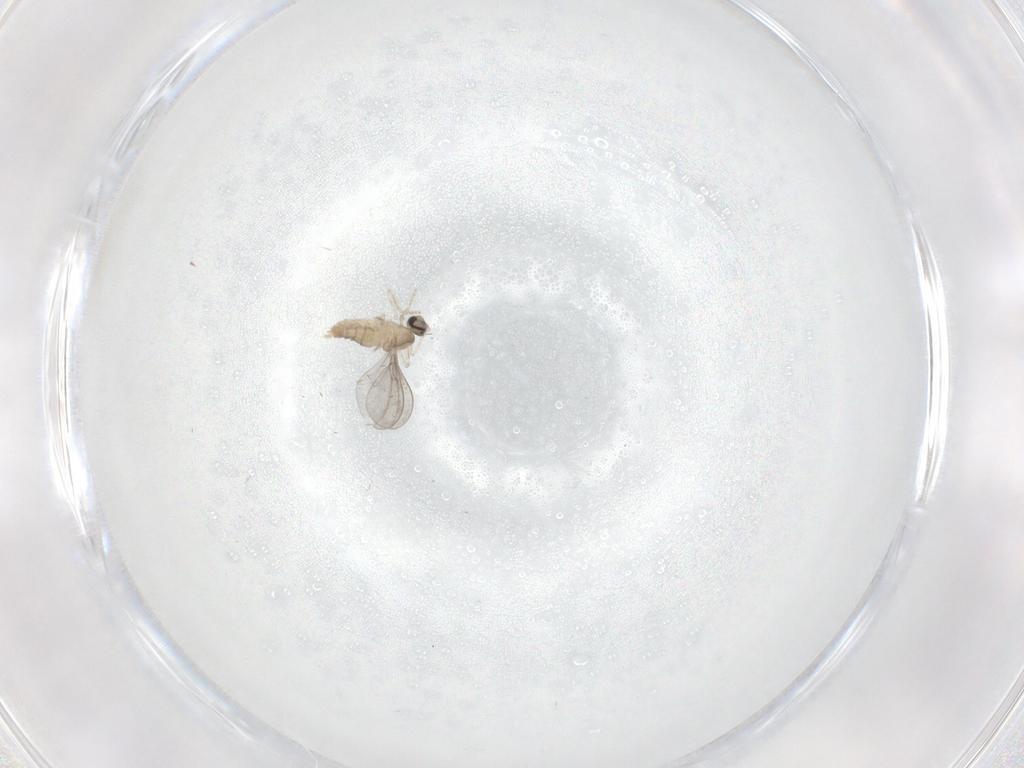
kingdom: Animalia
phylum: Arthropoda
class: Insecta
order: Diptera
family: Cecidomyiidae
